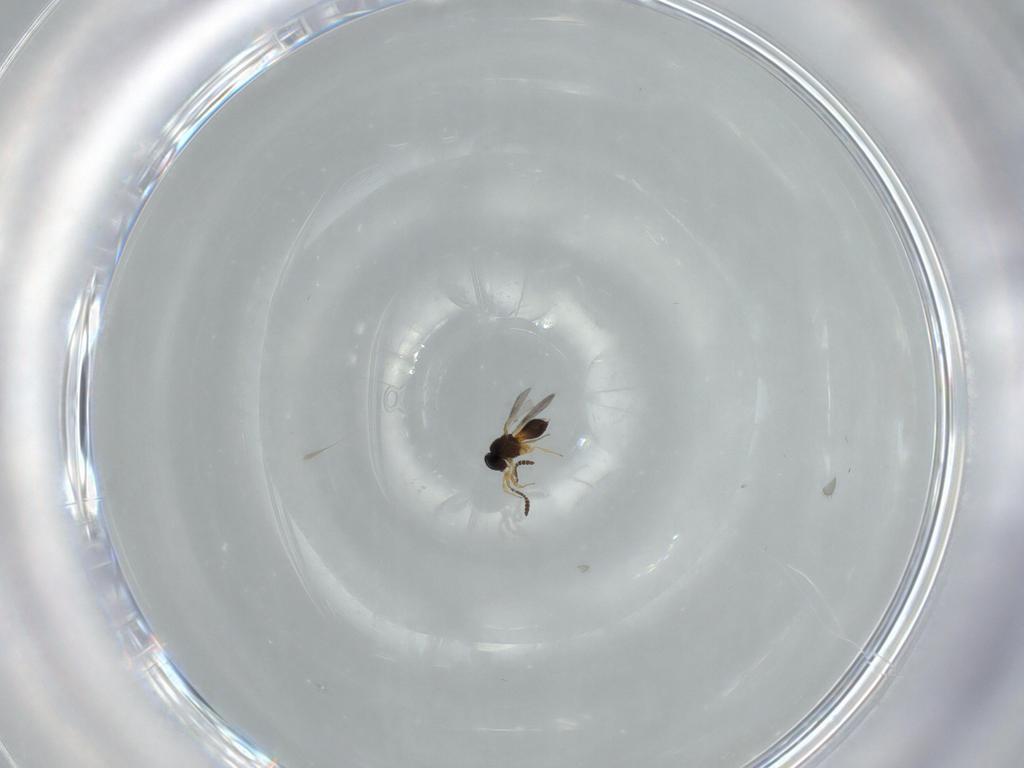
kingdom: Animalia
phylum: Arthropoda
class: Insecta
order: Hymenoptera
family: Scelionidae
